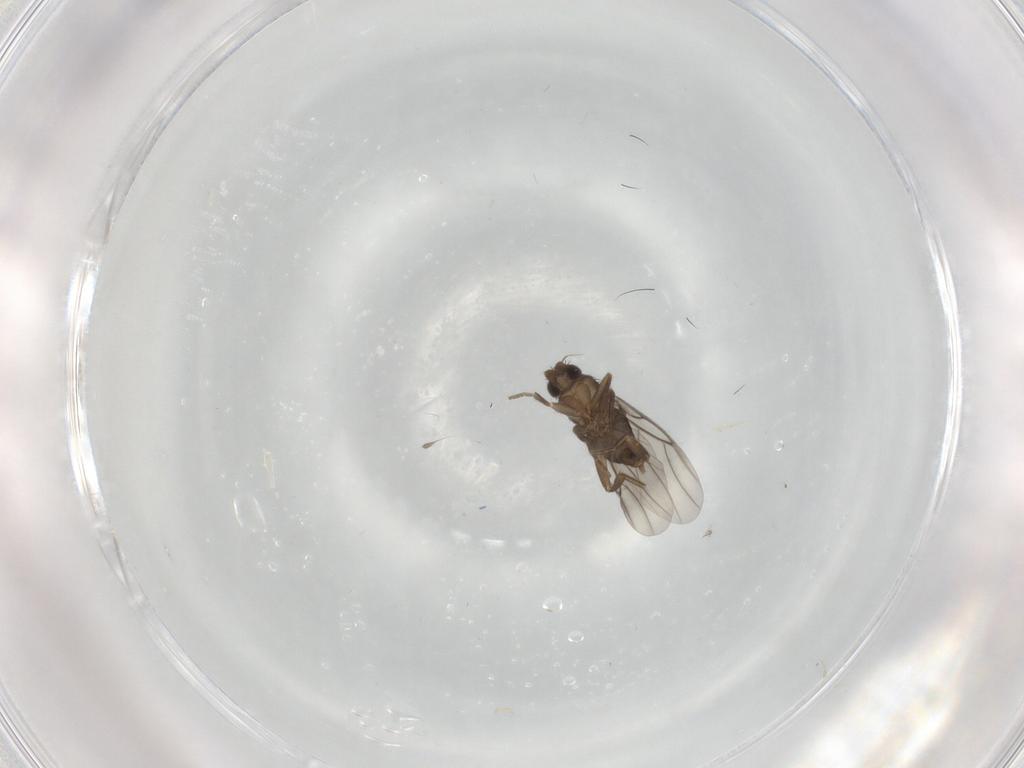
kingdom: Animalia
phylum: Arthropoda
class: Insecta
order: Diptera
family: Phoridae
